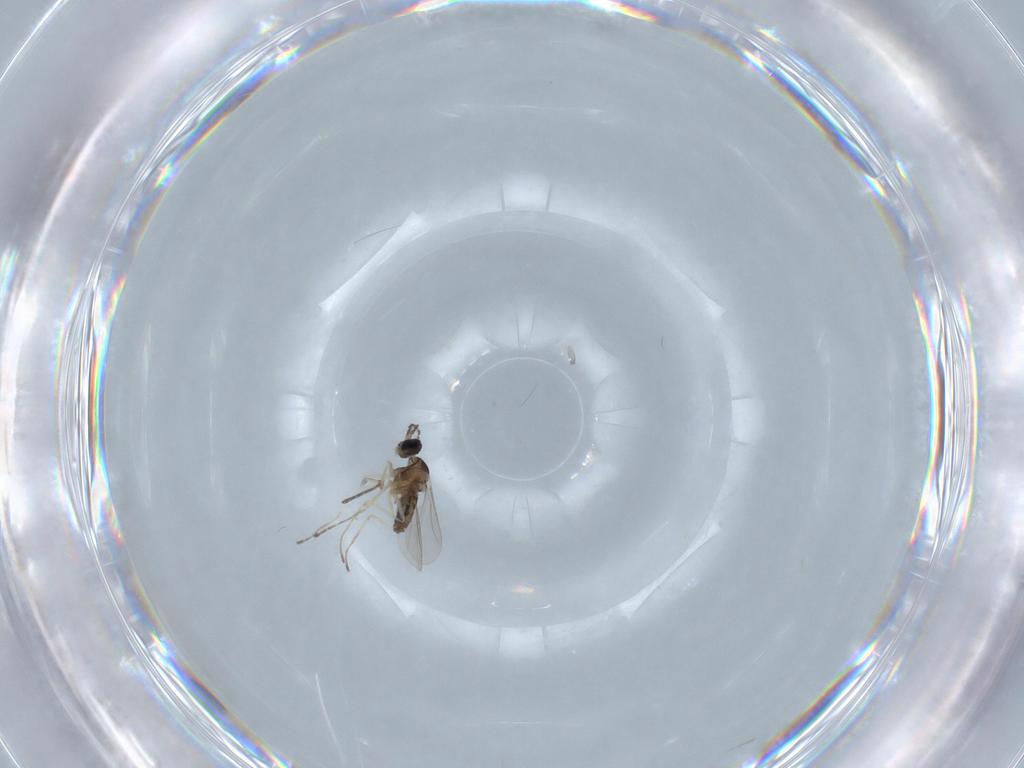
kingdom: Animalia
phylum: Arthropoda
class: Insecta
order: Diptera
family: Cecidomyiidae
